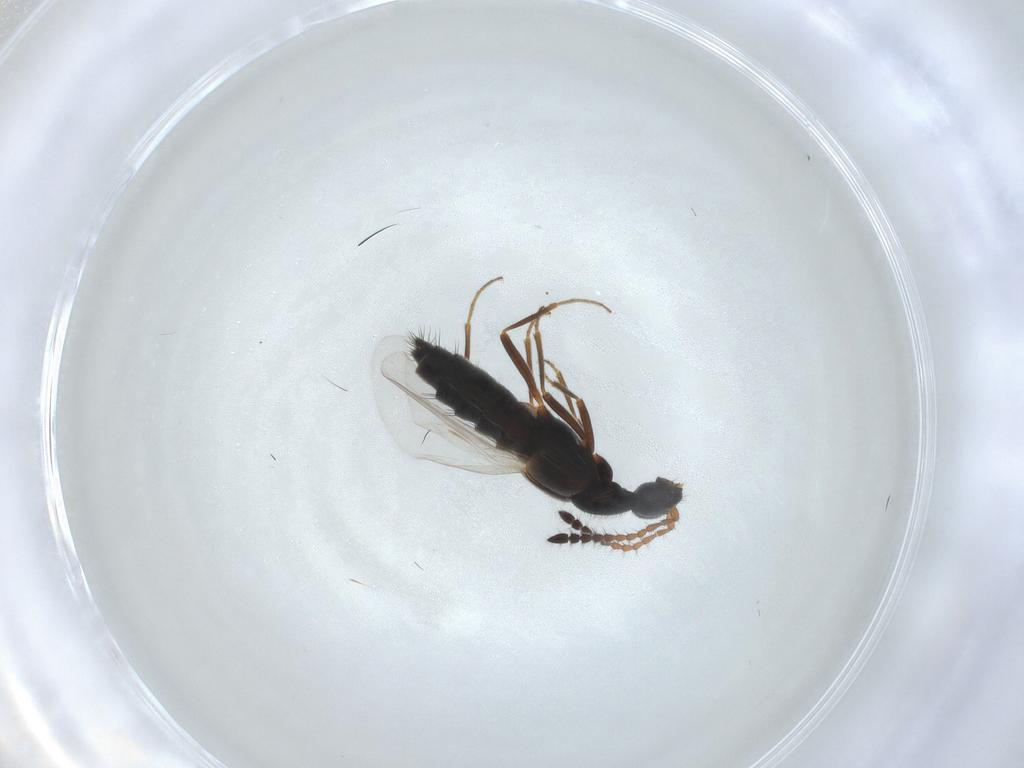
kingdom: Animalia
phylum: Arthropoda
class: Insecta
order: Coleoptera
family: Staphylinidae
